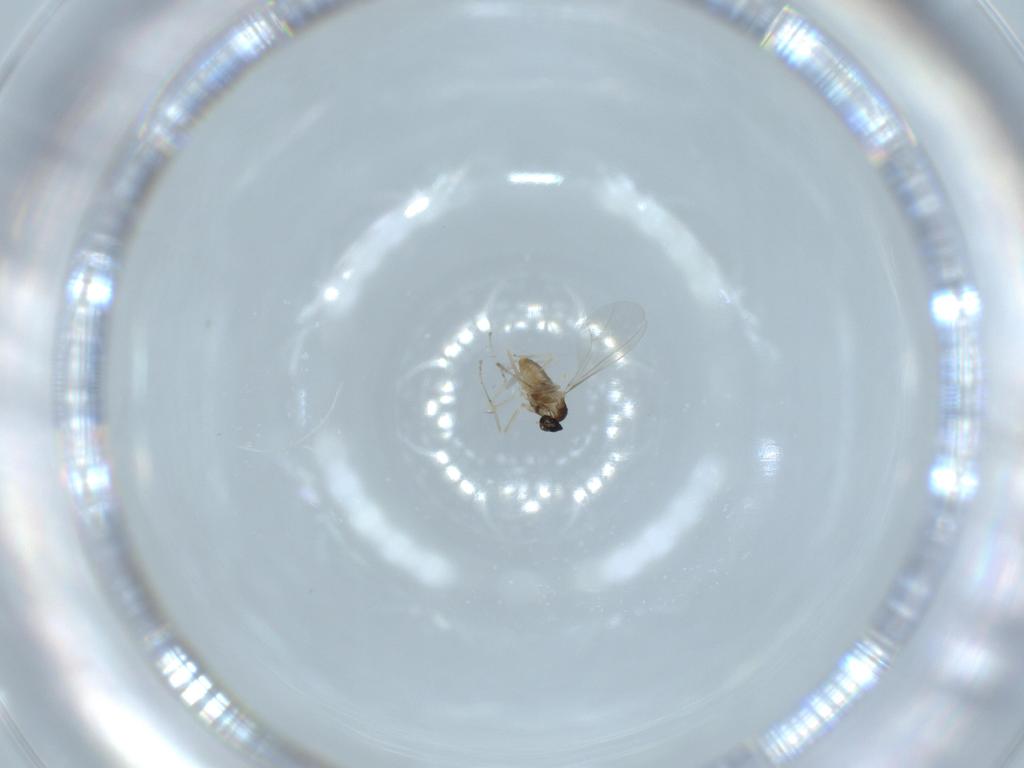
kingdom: Animalia
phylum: Arthropoda
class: Insecta
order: Diptera
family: Cecidomyiidae
